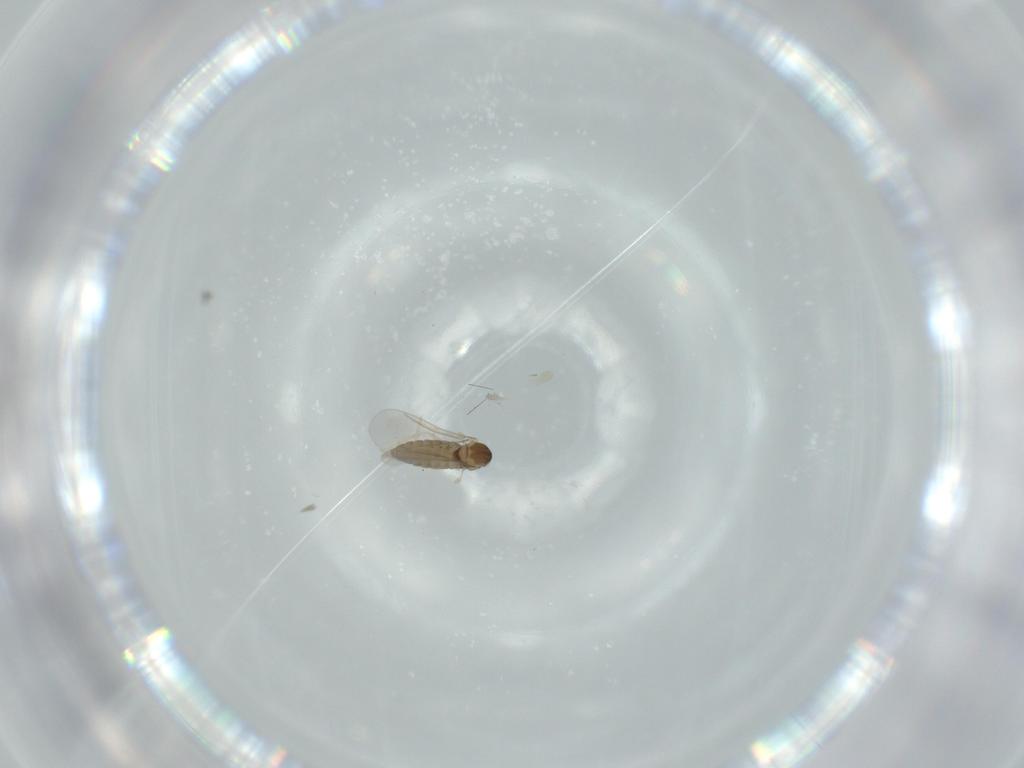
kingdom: Animalia
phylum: Arthropoda
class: Insecta
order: Diptera
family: Cecidomyiidae
